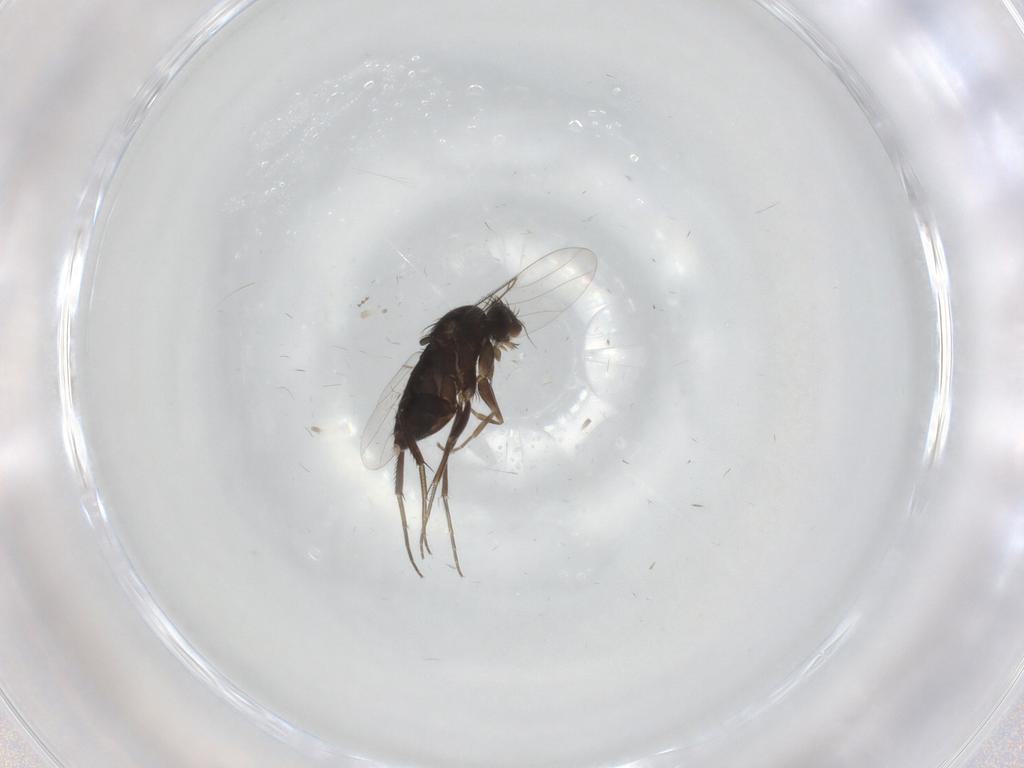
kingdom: Animalia
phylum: Arthropoda
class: Insecta
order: Diptera
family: Phoridae
